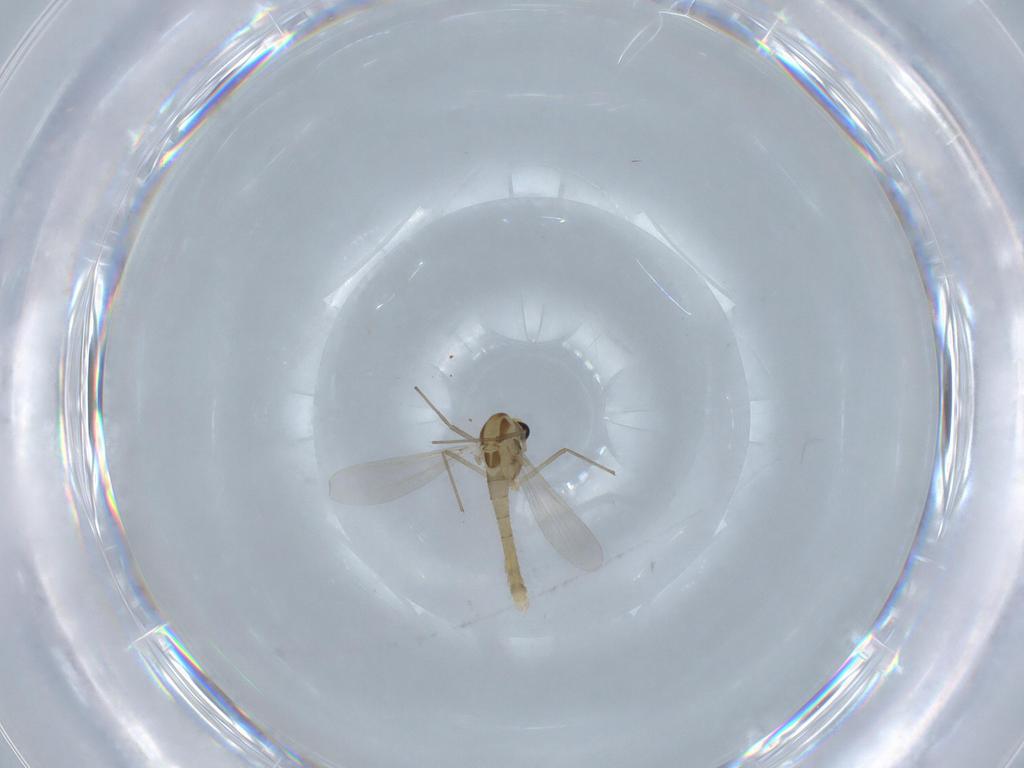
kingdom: Animalia
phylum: Arthropoda
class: Insecta
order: Diptera
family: Chironomidae
